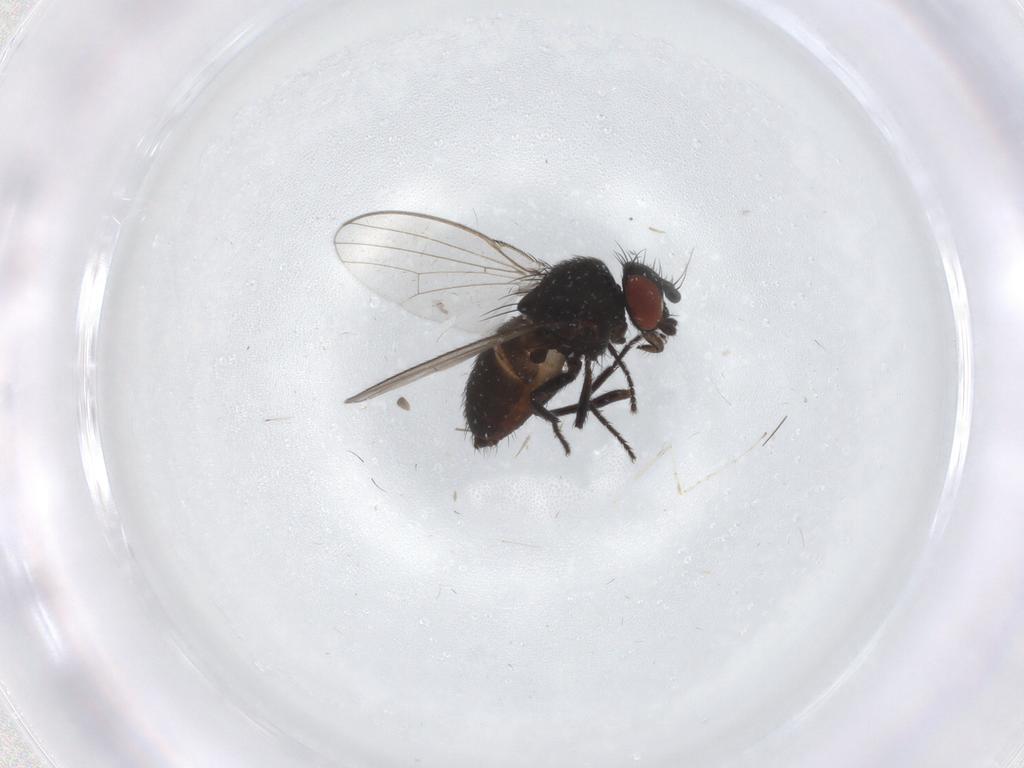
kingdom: Animalia
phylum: Arthropoda
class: Insecta
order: Diptera
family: Milichiidae
